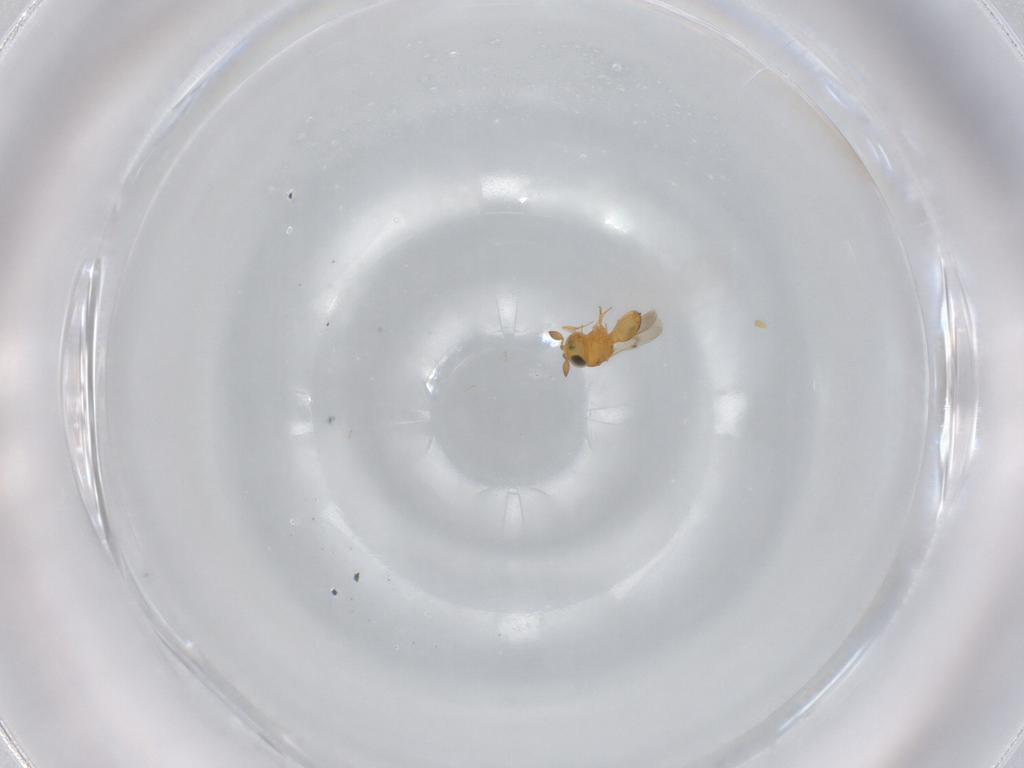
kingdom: Animalia
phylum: Arthropoda
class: Insecta
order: Hymenoptera
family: Scelionidae
